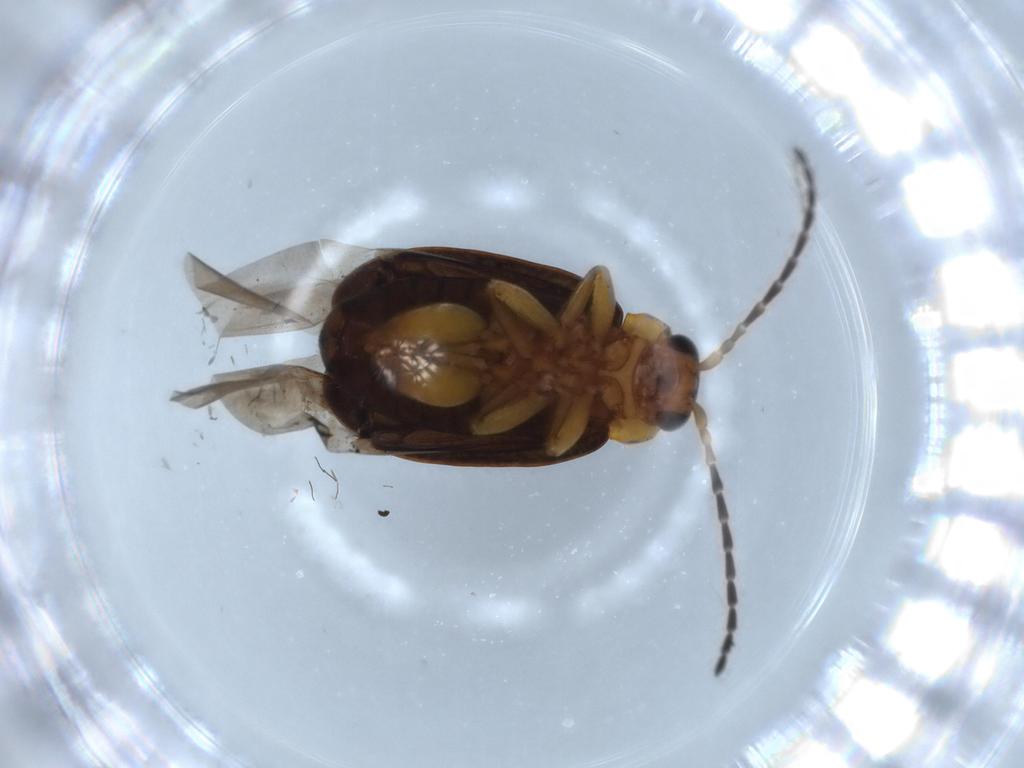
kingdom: Animalia
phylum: Arthropoda
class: Insecta
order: Coleoptera
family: Chrysomelidae
